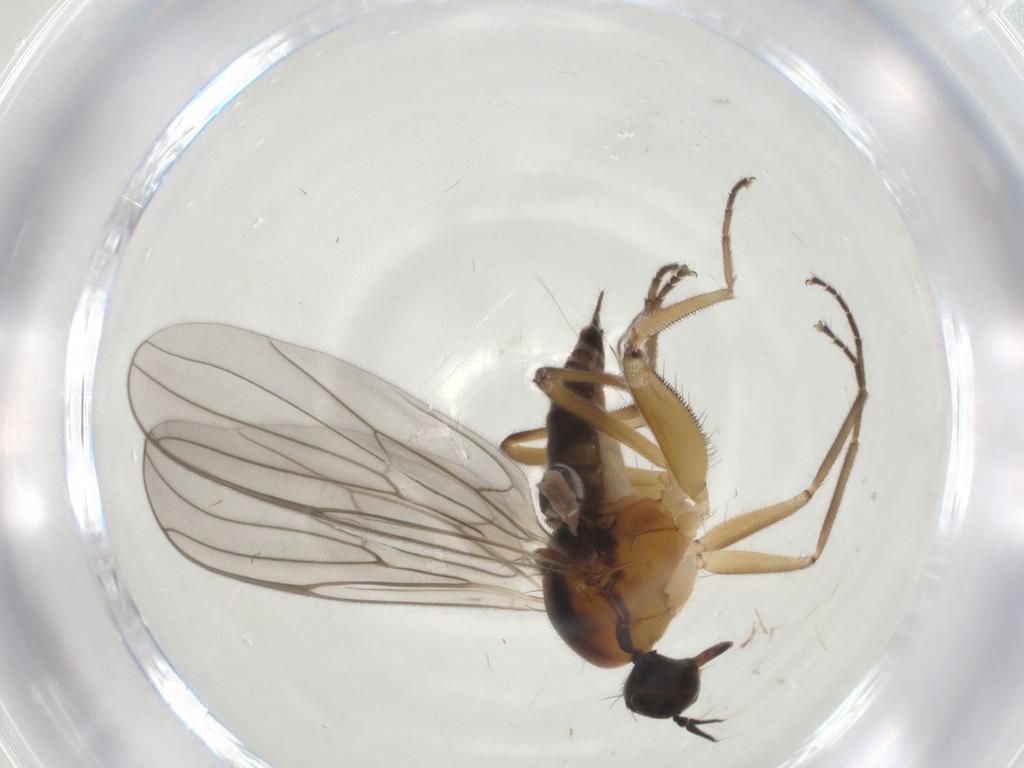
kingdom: Animalia
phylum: Arthropoda
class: Insecta
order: Diptera
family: Hybotidae
